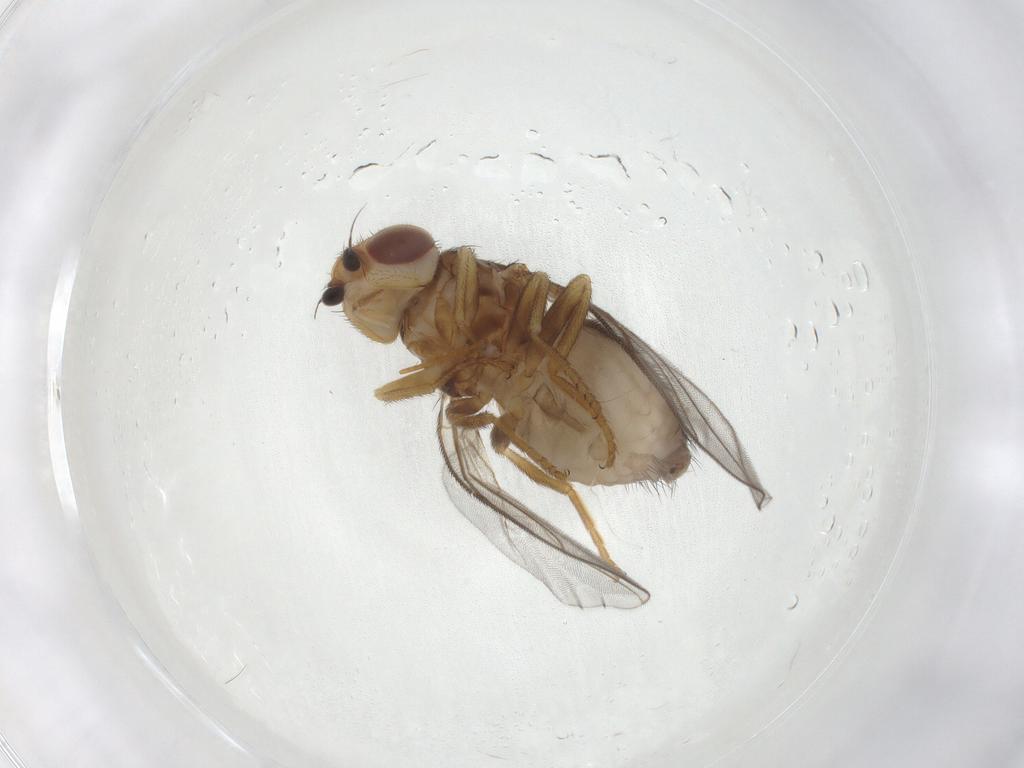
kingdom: Animalia
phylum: Arthropoda
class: Insecta
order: Diptera
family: Chloropidae
